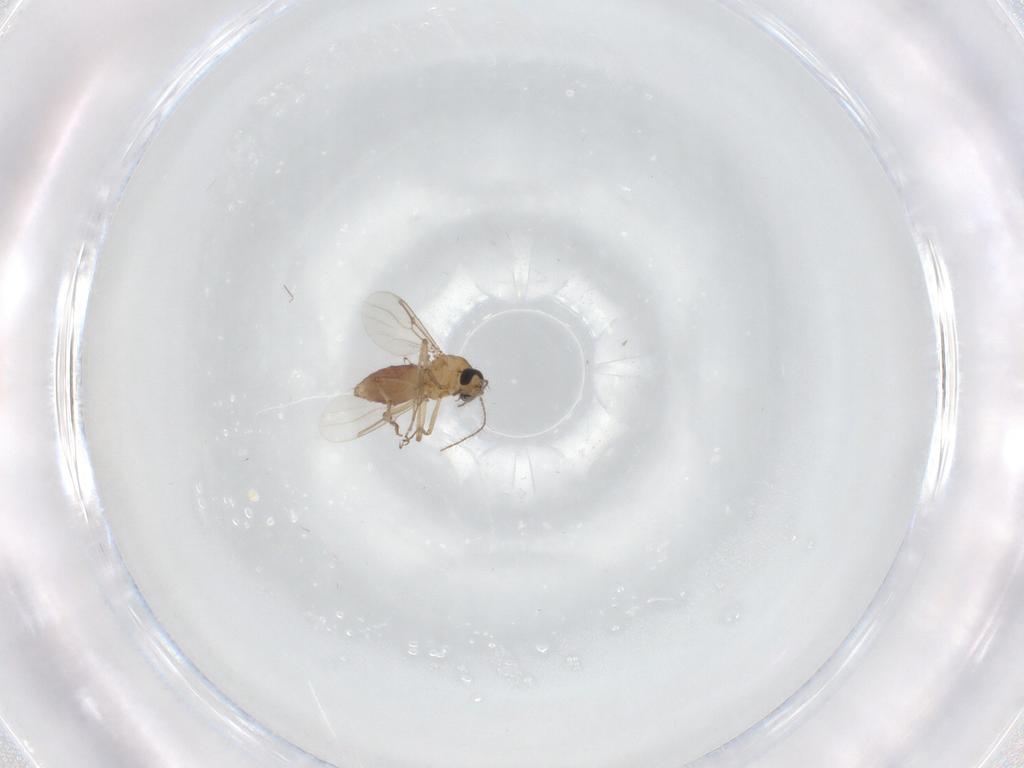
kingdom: Animalia
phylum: Arthropoda
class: Insecta
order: Diptera
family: Ceratopogonidae
